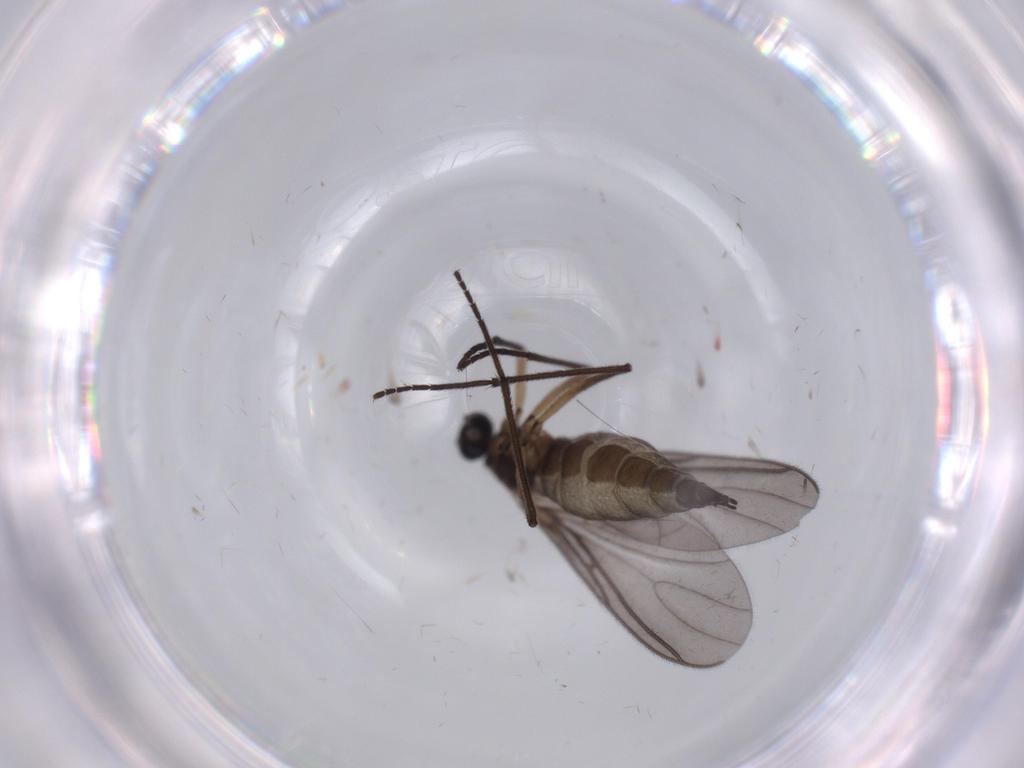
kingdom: Animalia
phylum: Arthropoda
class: Insecta
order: Diptera
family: Sciaridae
